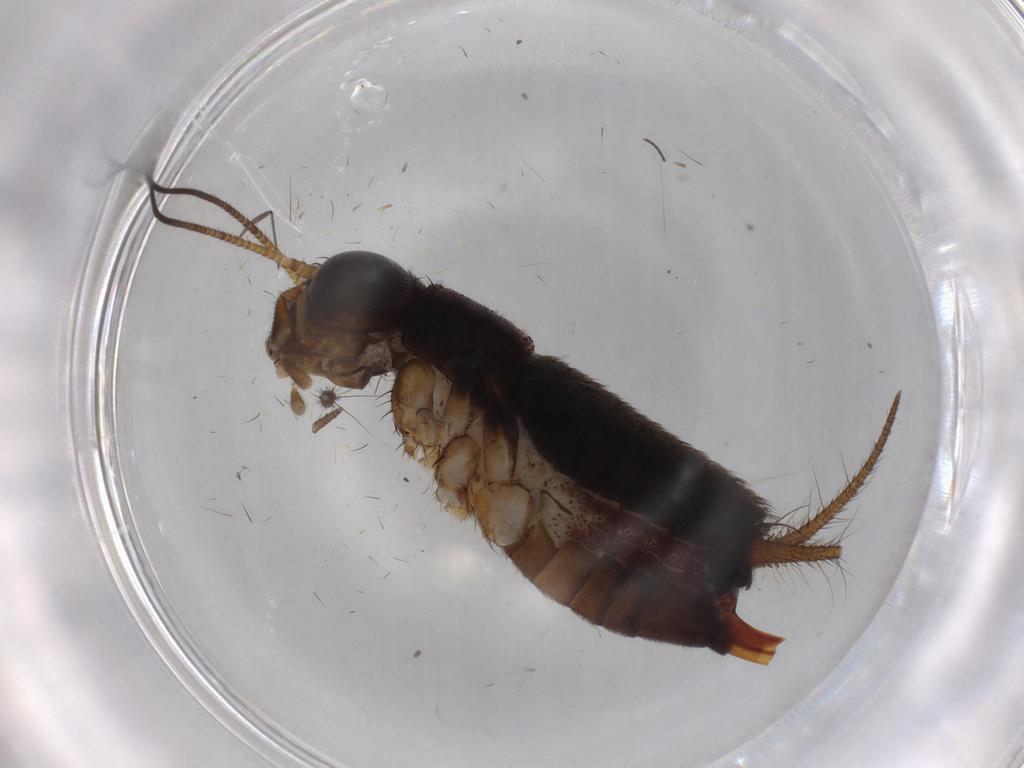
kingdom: Animalia
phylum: Arthropoda
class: Insecta
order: Orthoptera
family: Trigonidiidae
